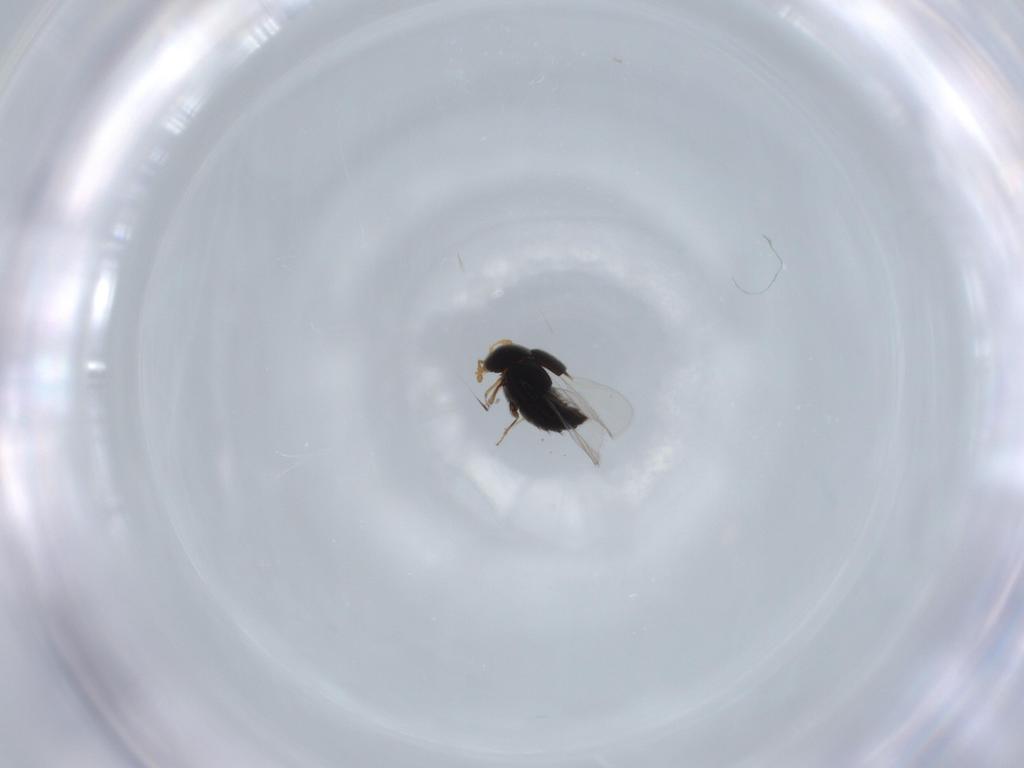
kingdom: Animalia
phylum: Arthropoda
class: Insecta
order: Coleoptera
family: Staphylinidae
